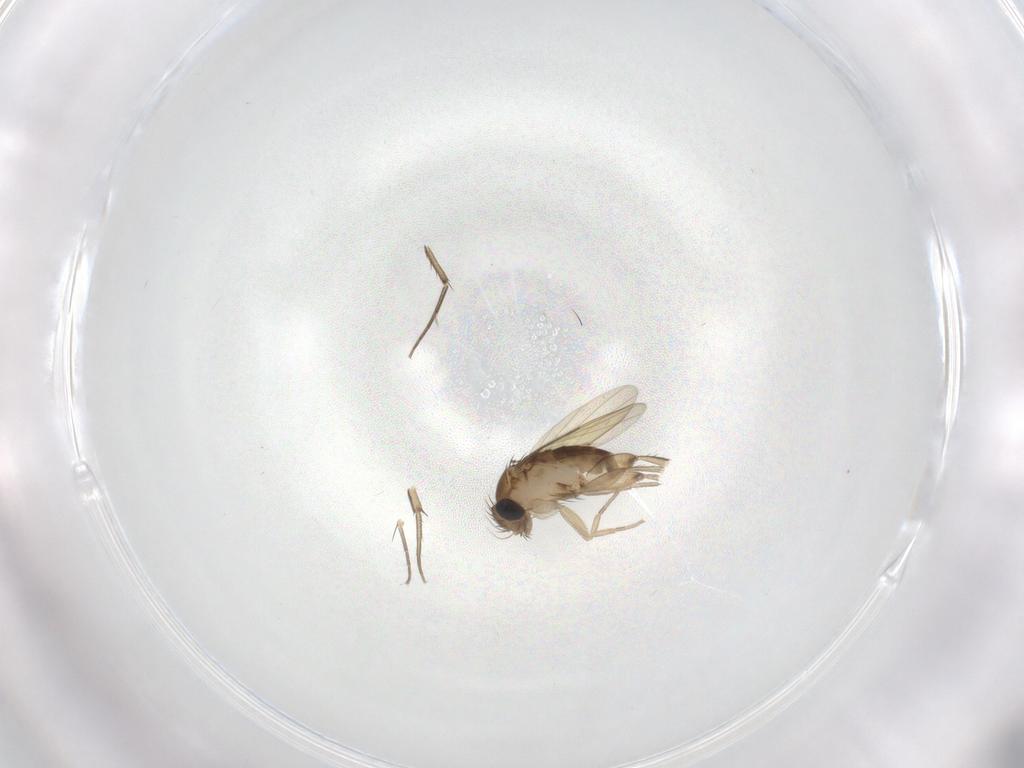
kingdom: Animalia
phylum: Arthropoda
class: Insecta
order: Diptera
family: Phoridae
